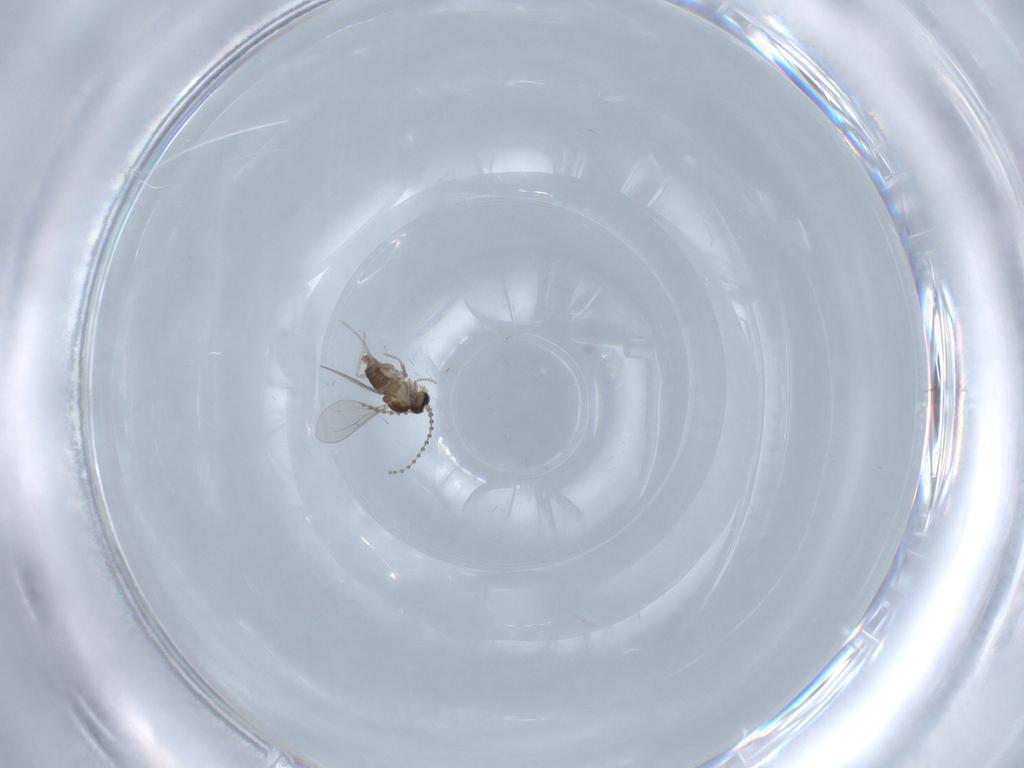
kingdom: Animalia
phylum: Arthropoda
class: Insecta
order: Diptera
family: Cecidomyiidae
